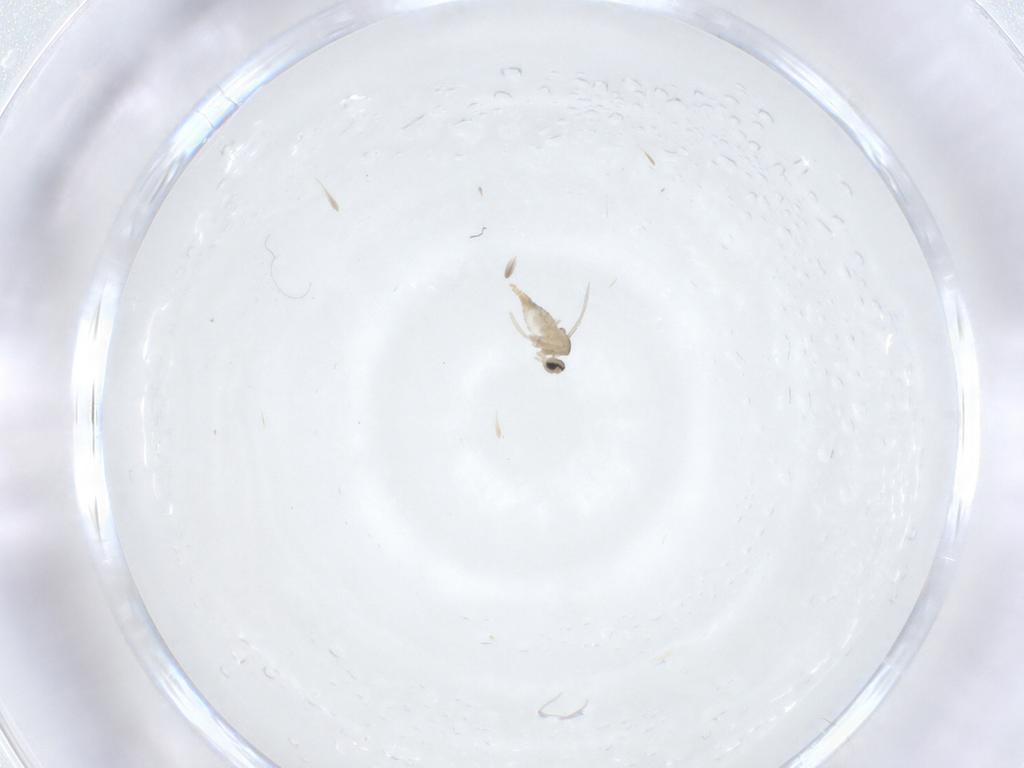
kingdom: Animalia
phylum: Arthropoda
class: Insecta
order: Diptera
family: Cecidomyiidae
